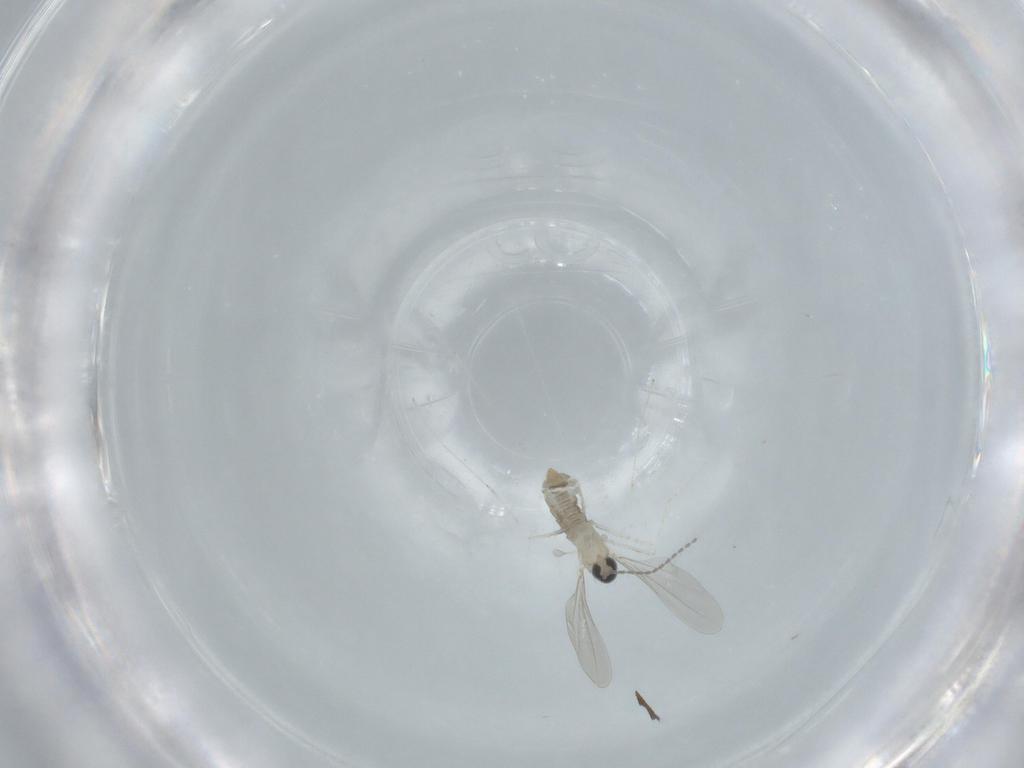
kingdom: Animalia
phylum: Arthropoda
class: Insecta
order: Diptera
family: Cecidomyiidae
